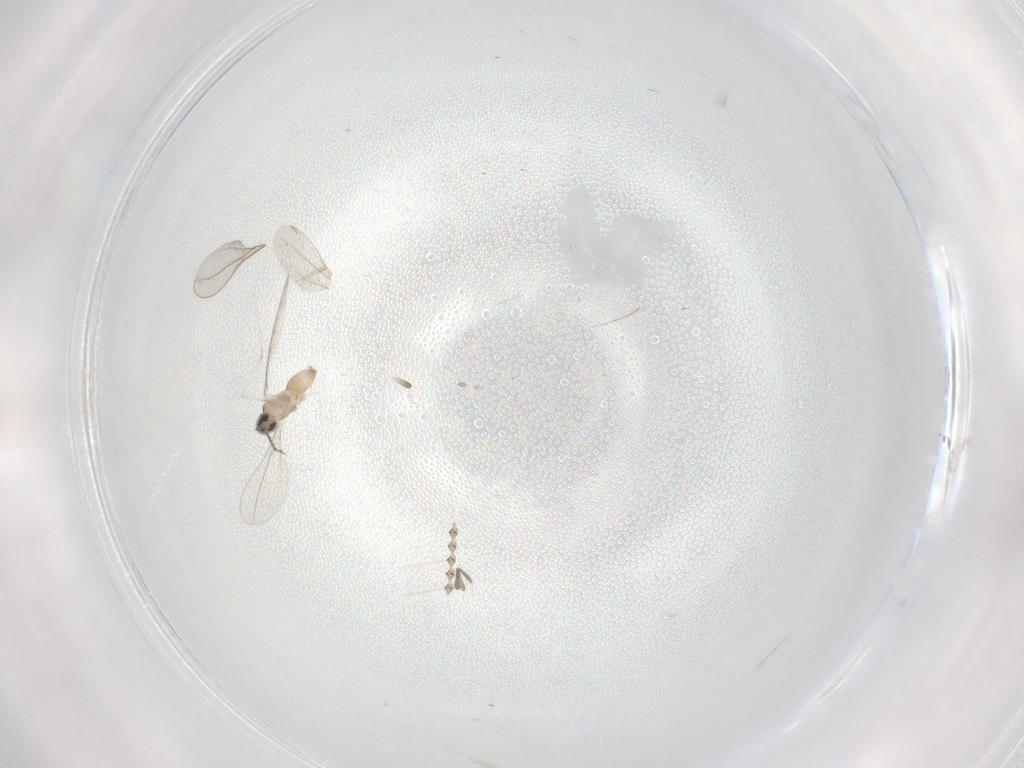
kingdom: Animalia
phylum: Arthropoda
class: Insecta
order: Diptera
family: Psychodidae
